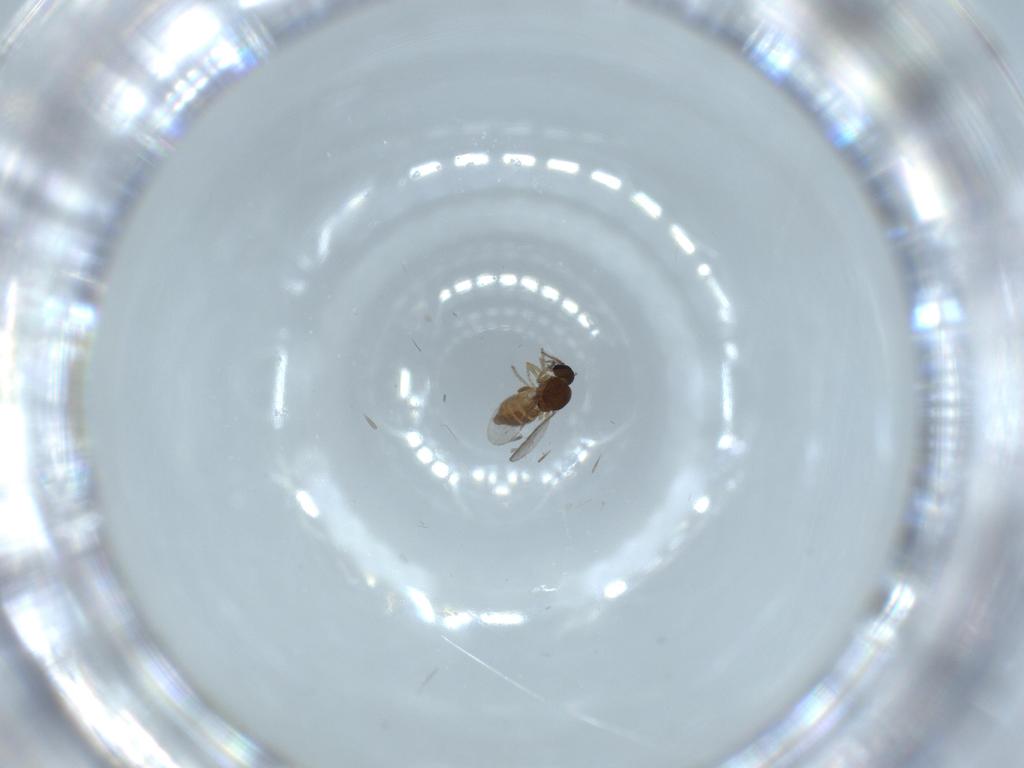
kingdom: Animalia
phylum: Arthropoda
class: Insecta
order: Diptera
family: Ceratopogonidae
